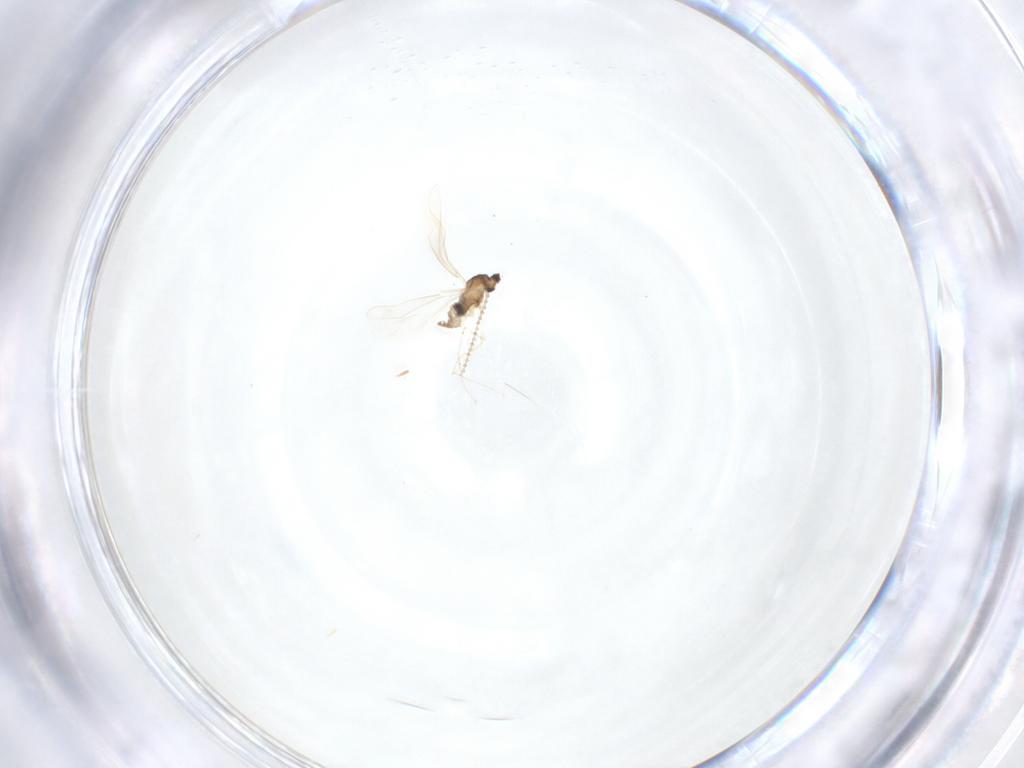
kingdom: Animalia
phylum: Arthropoda
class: Insecta
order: Diptera
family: Cecidomyiidae
